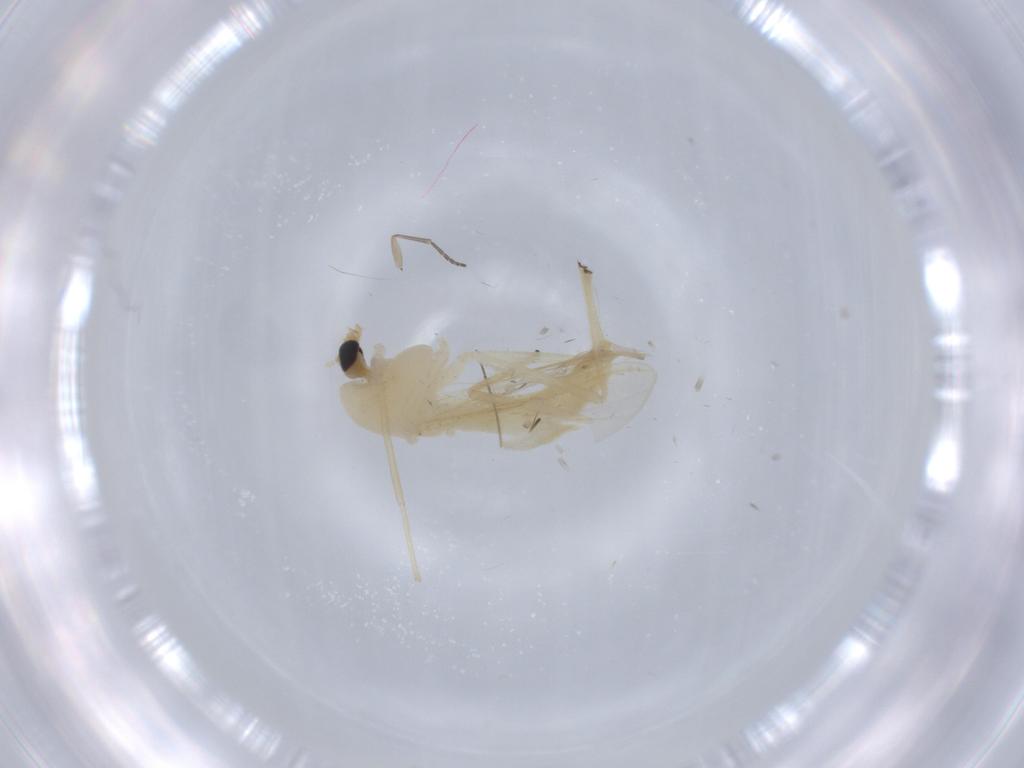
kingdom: Animalia
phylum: Arthropoda
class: Insecta
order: Diptera
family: Chironomidae
